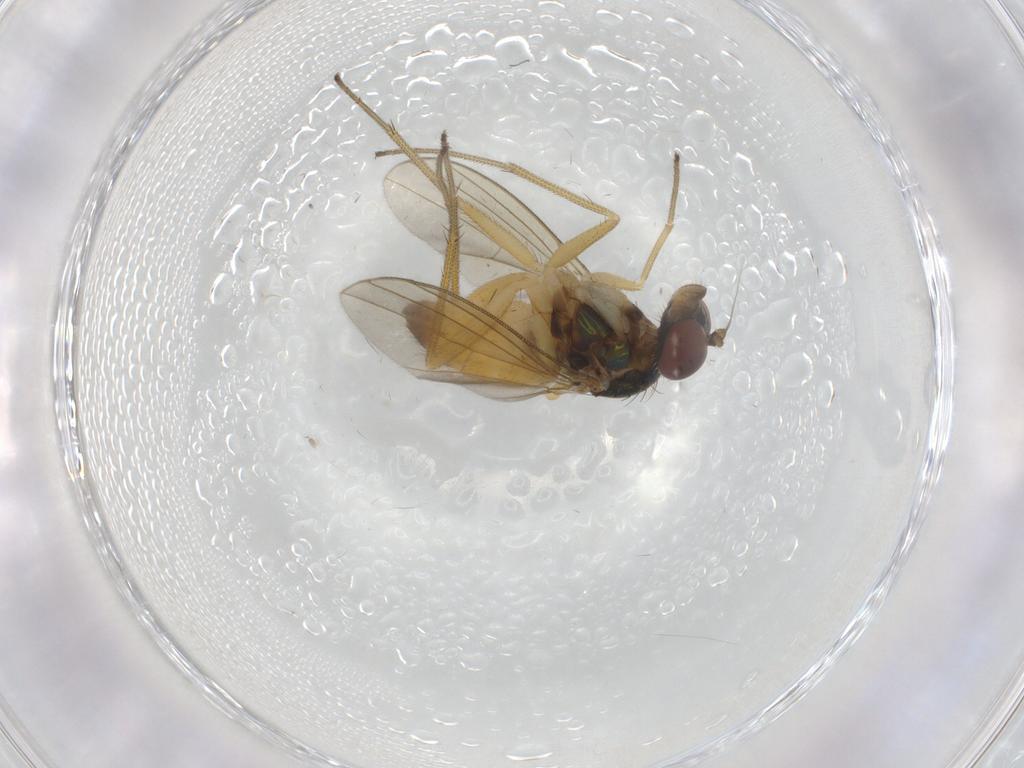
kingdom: Animalia
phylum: Arthropoda
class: Insecta
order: Diptera
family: Dolichopodidae
